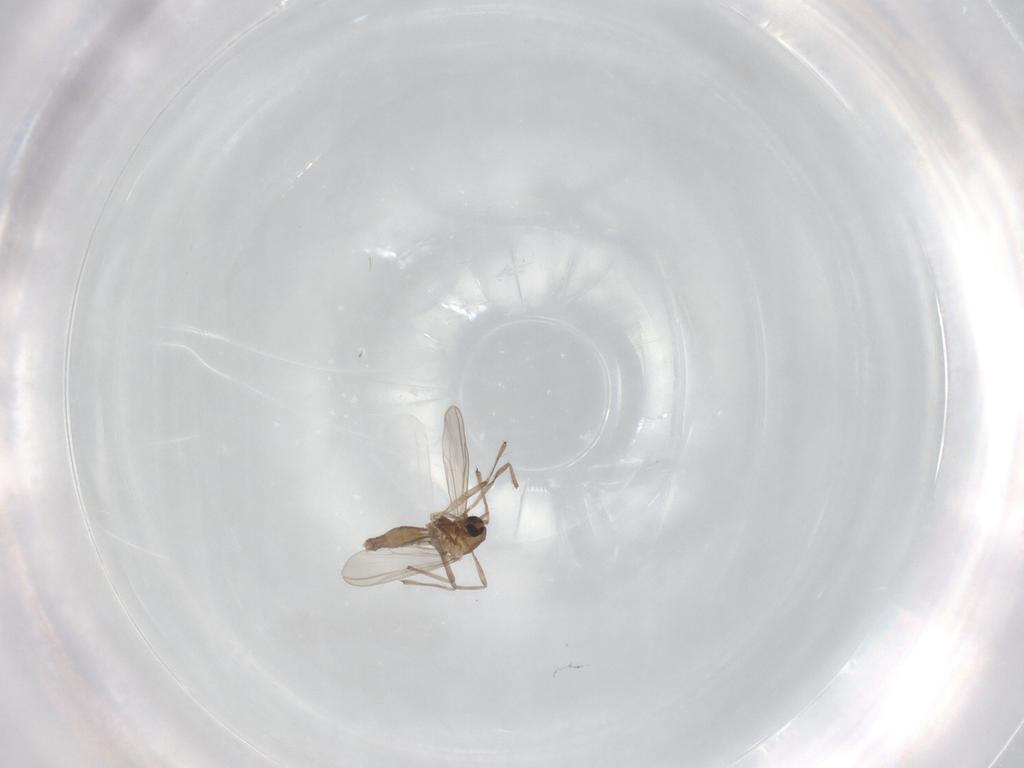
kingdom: Animalia
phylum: Arthropoda
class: Insecta
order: Diptera
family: Chironomidae
